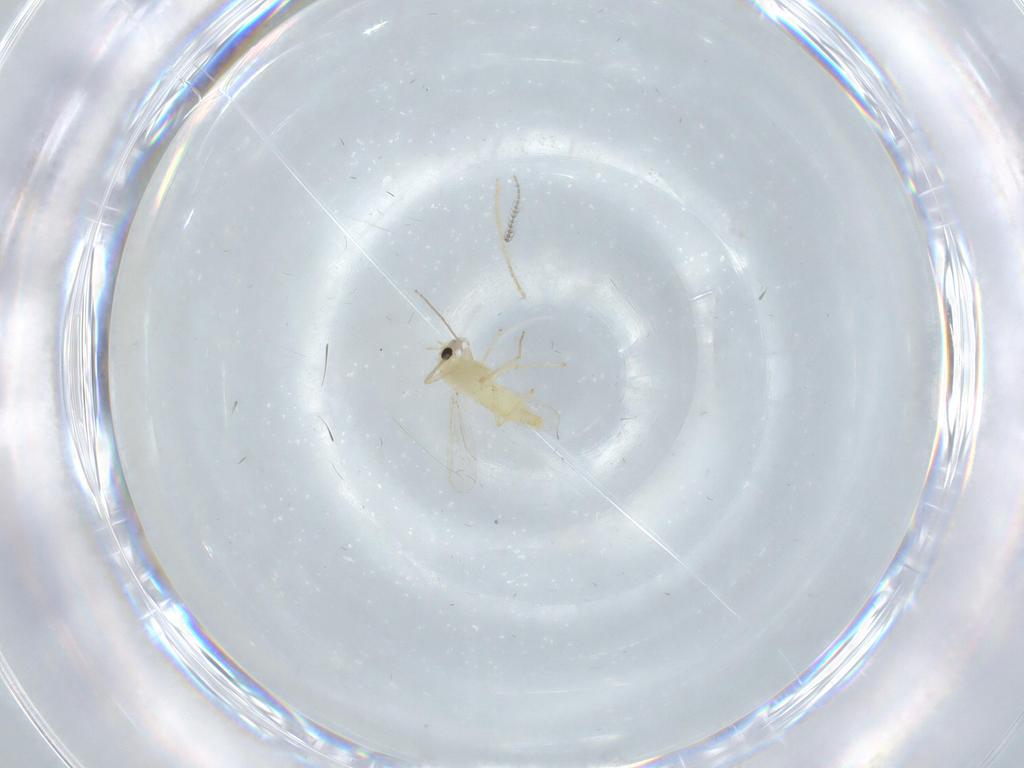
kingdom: Animalia
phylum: Arthropoda
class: Insecta
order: Diptera
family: Chironomidae
